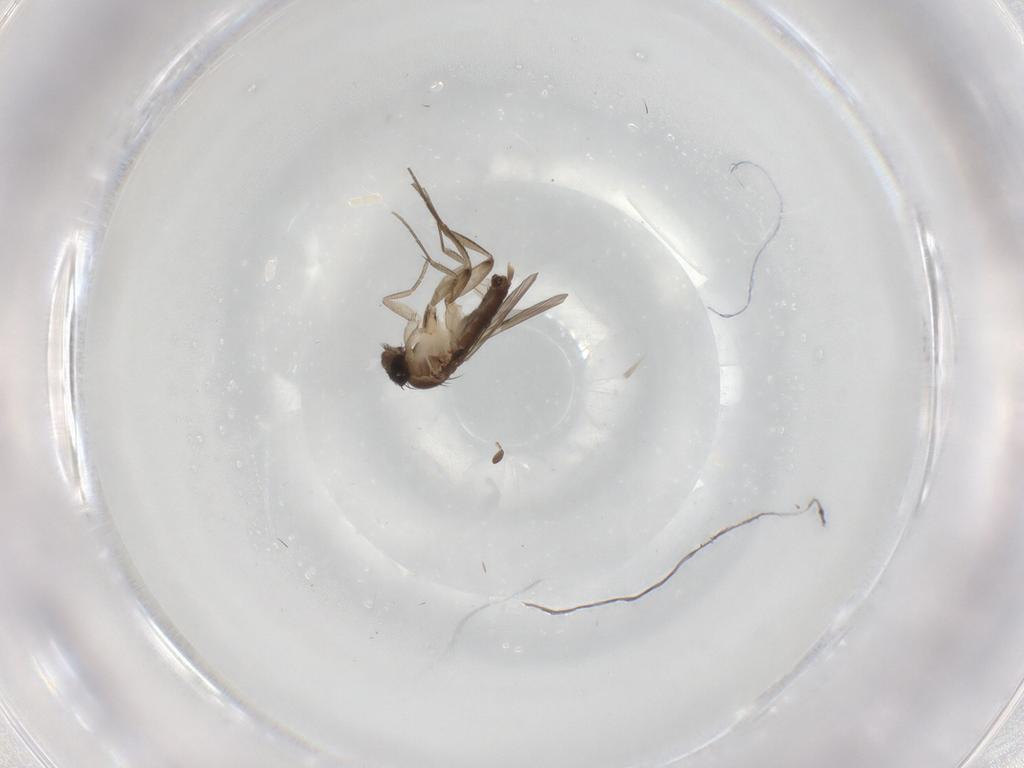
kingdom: Animalia
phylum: Arthropoda
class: Insecta
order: Diptera
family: Phoridae
